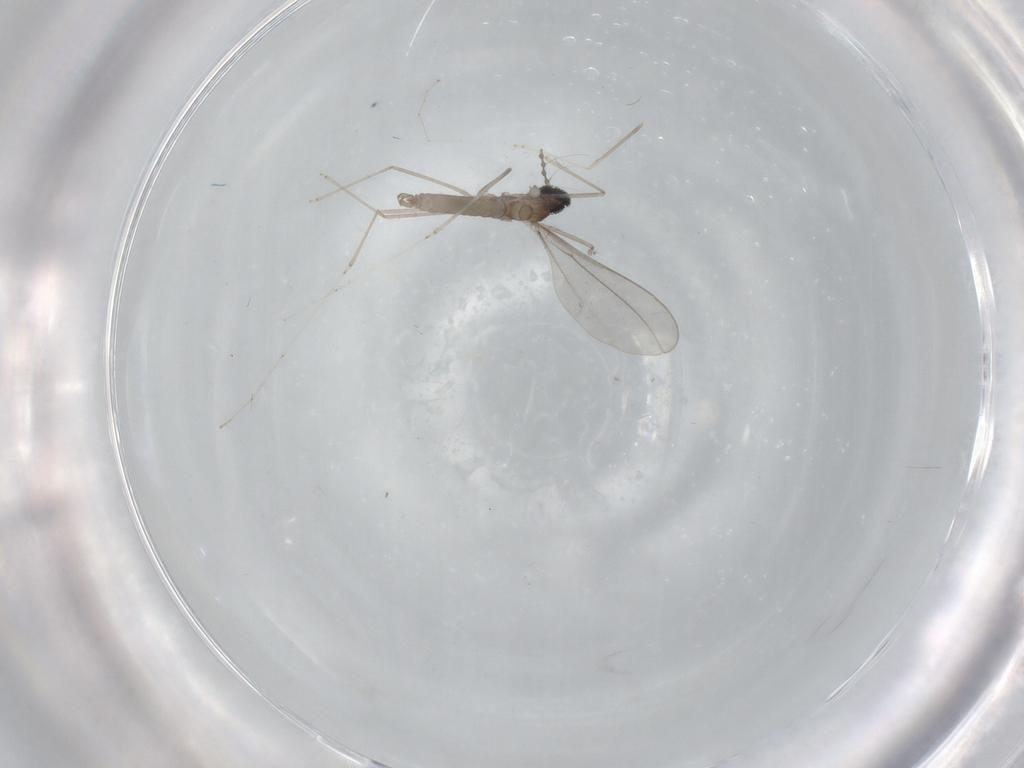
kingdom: Animalia
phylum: Arthropoda
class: Insecta
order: Diptera
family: Phoridae
